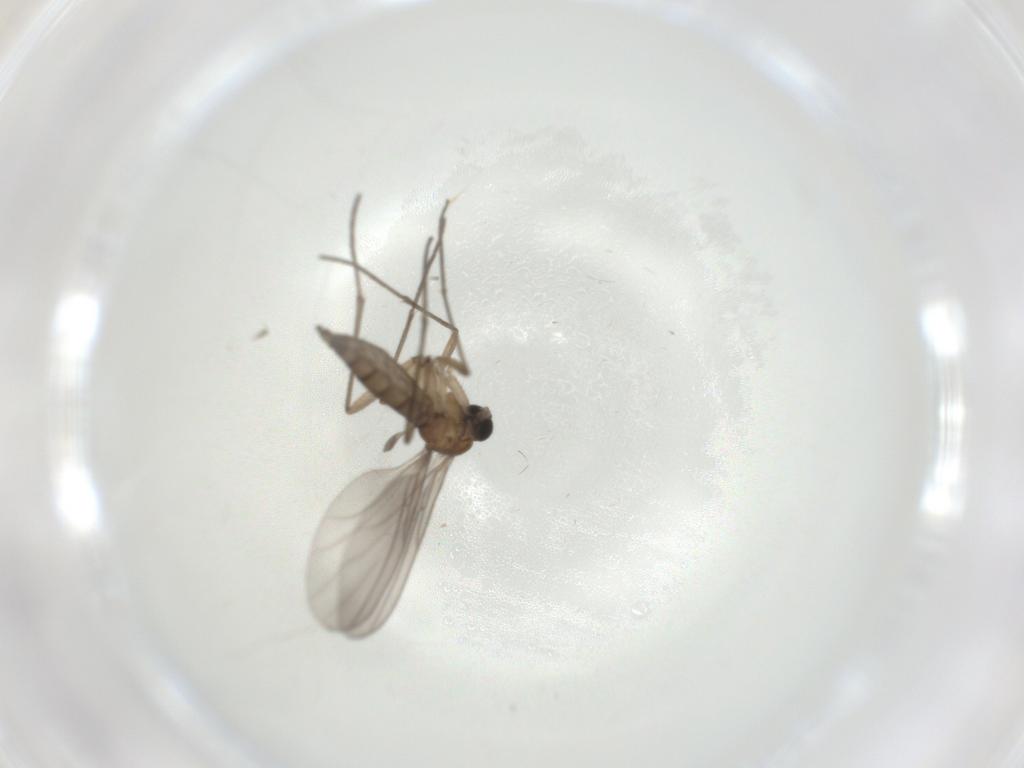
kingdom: Animalia
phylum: Arthropoda
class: Insecta
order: Diptera
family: Sciaridae
